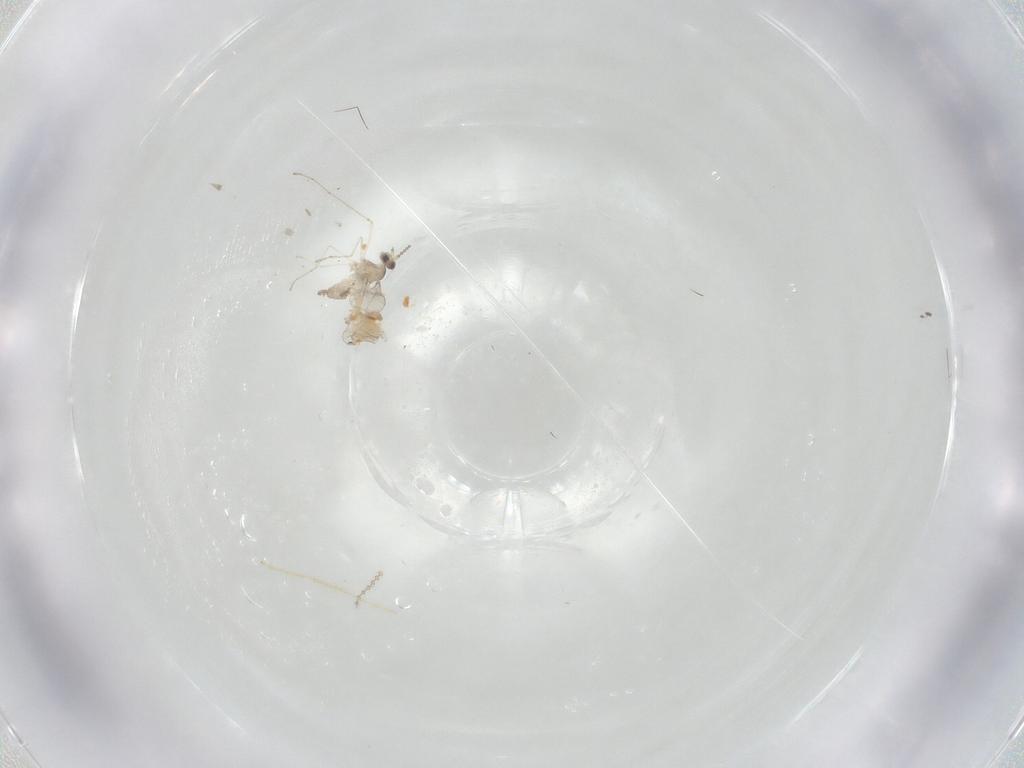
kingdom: Animalia
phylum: Arthropoda
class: Insecta
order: Diptera
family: Cecidomyiidae
